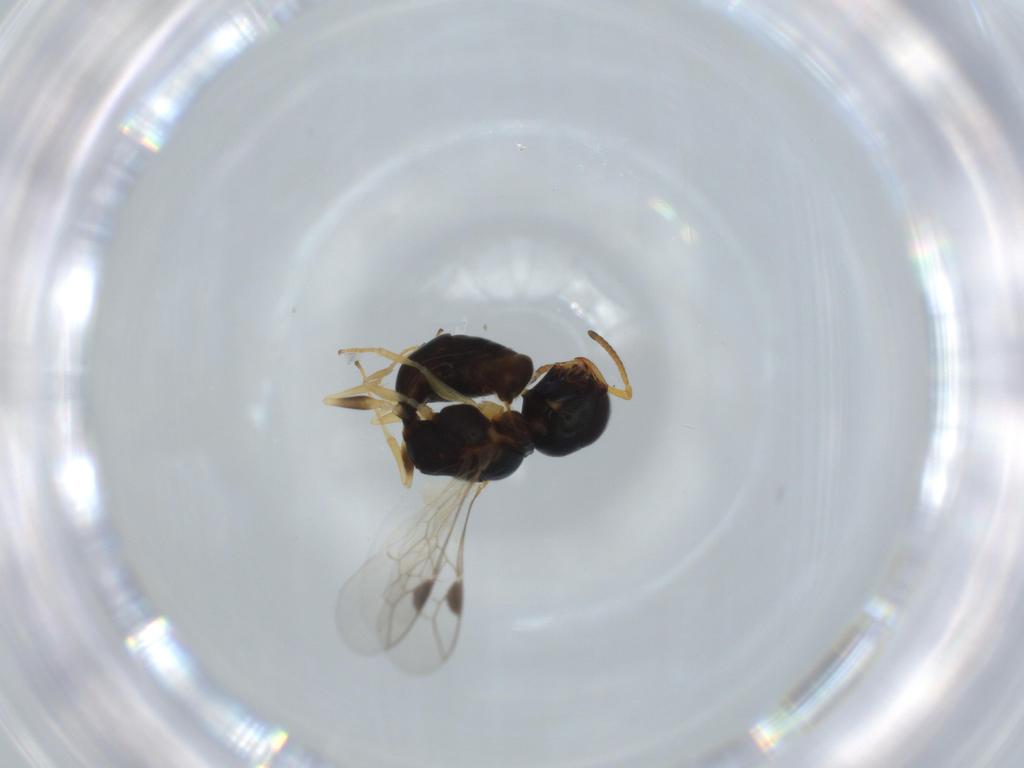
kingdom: Animalia
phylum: Arthropoda
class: Insecta
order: Hymenoptera
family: Pemphredonidae
